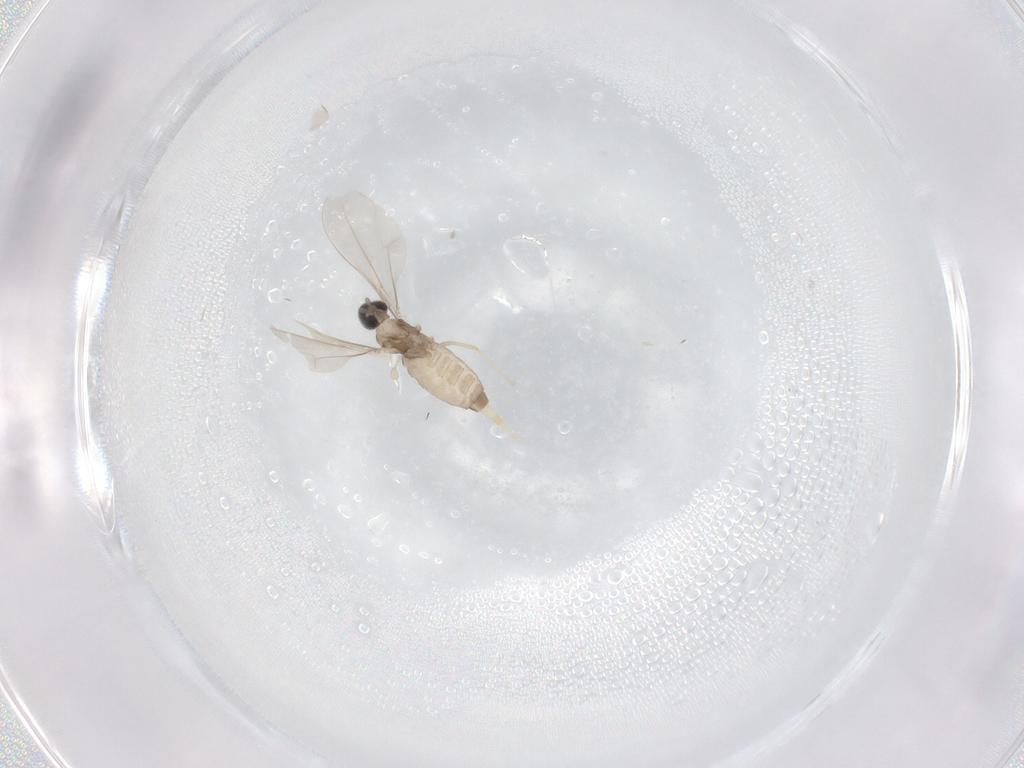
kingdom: Animalia
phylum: Arthropoda
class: Insecta
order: Diptera
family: Cecidomyiidae
